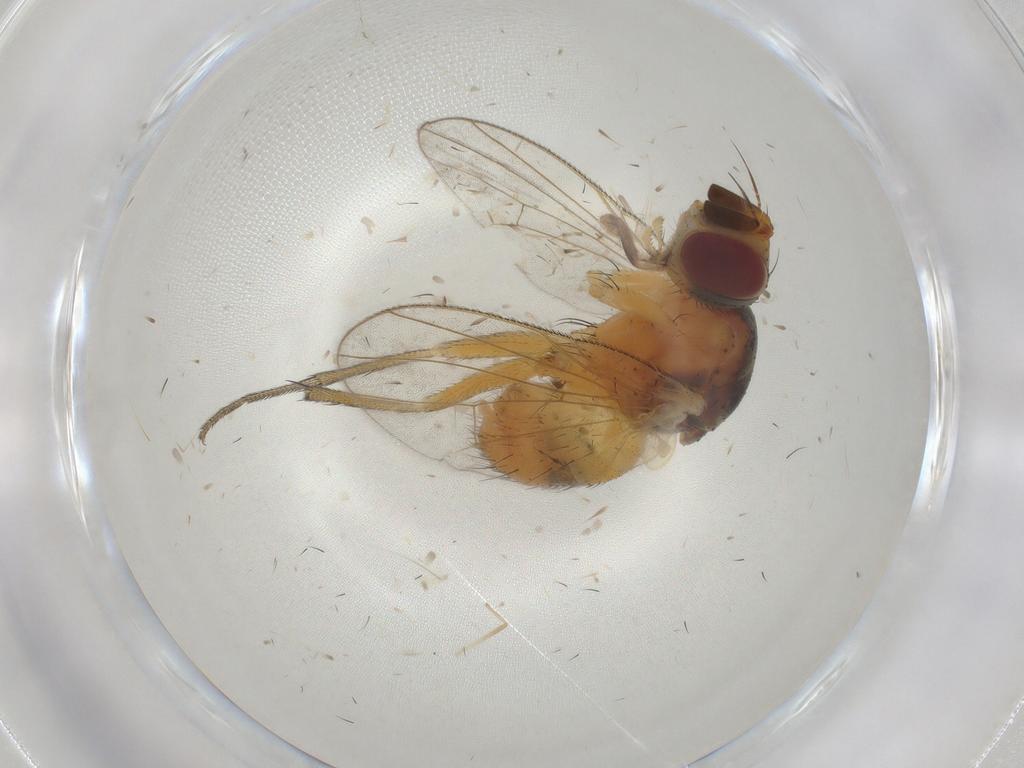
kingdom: Animalia
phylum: Arthropoda
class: Insecta
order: Diptera
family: Muscidae
